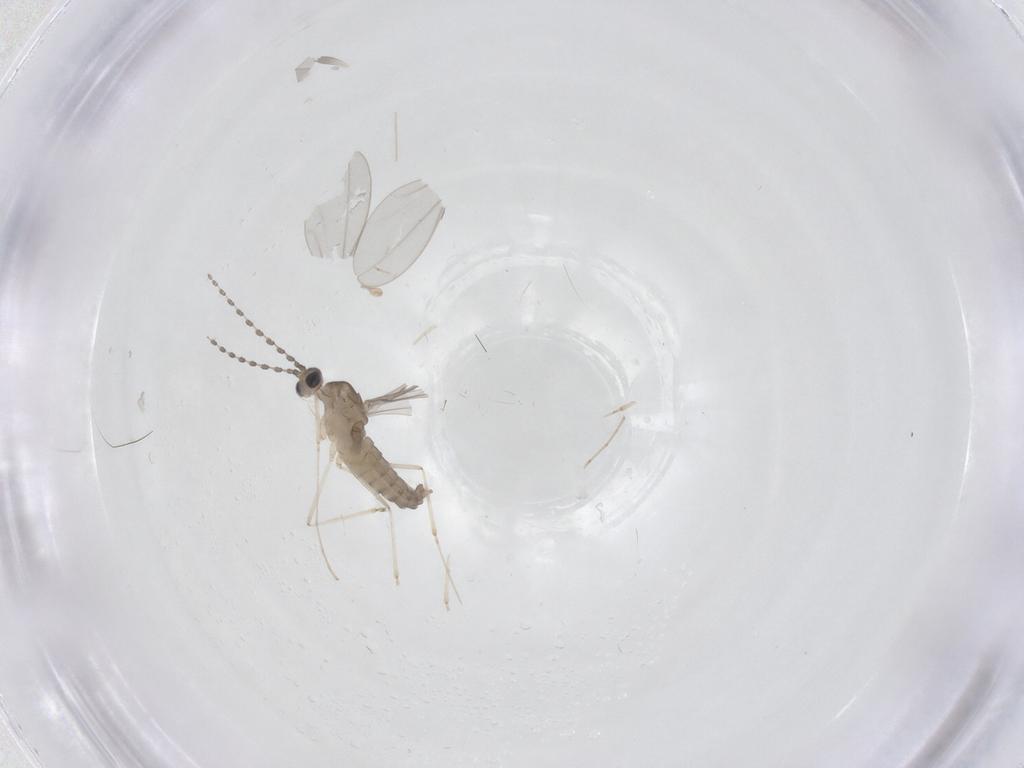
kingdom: Animalia
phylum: Arthropoda
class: Insecta
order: Diptera
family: Cecidomyiidae
